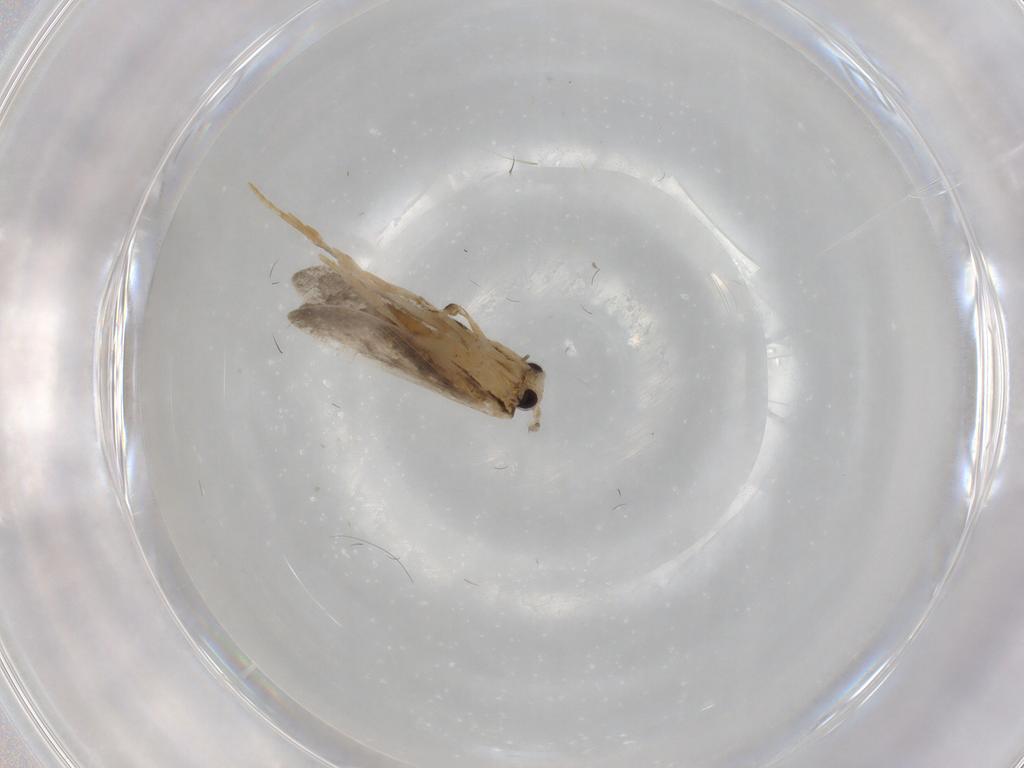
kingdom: Animalia
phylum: Arthropoda
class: Insecta
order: Lepidoptera
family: Psychidae
